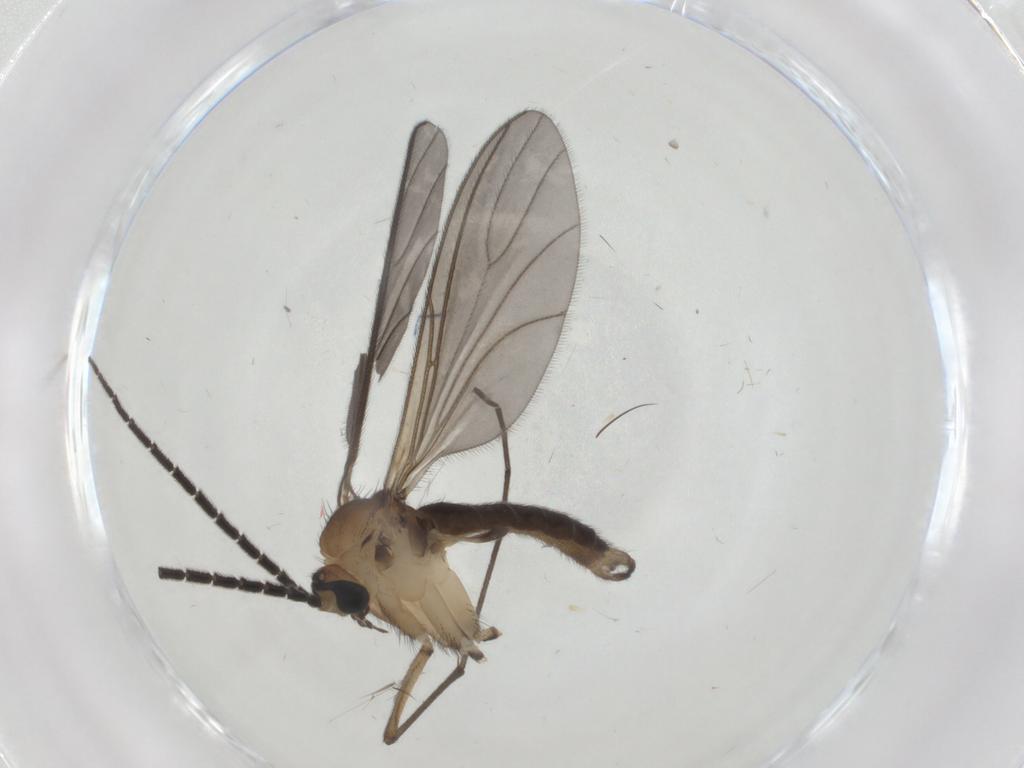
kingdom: Animalia
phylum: Arthropoda
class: Insecta
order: Diptera
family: Sciaridae
